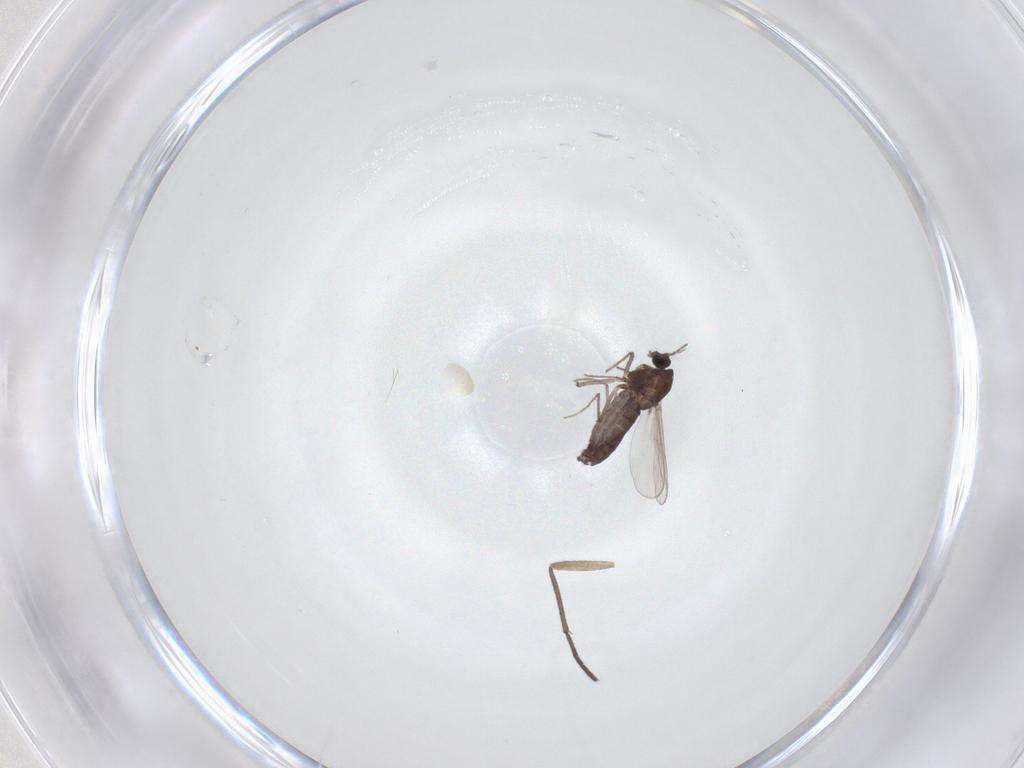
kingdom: Animalia
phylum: Arthropoda
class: Insecta
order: Diptera
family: Chironomidae
